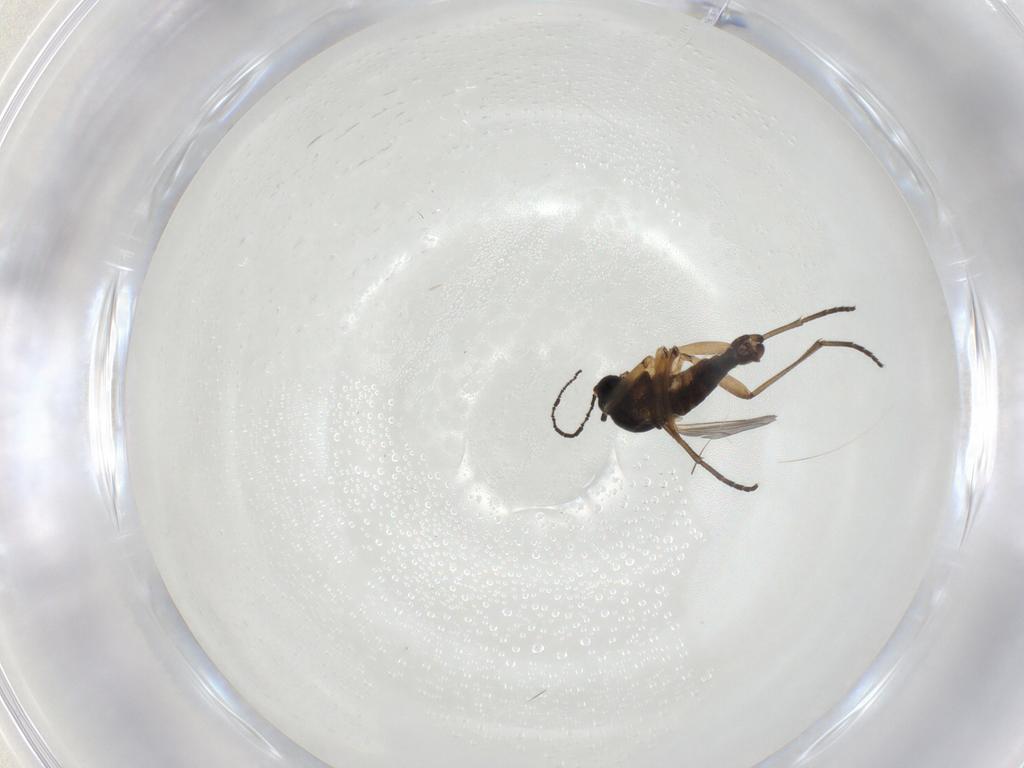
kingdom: Animalia
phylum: Arthropoda
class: Insecta
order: Diptera
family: Sciaridae
